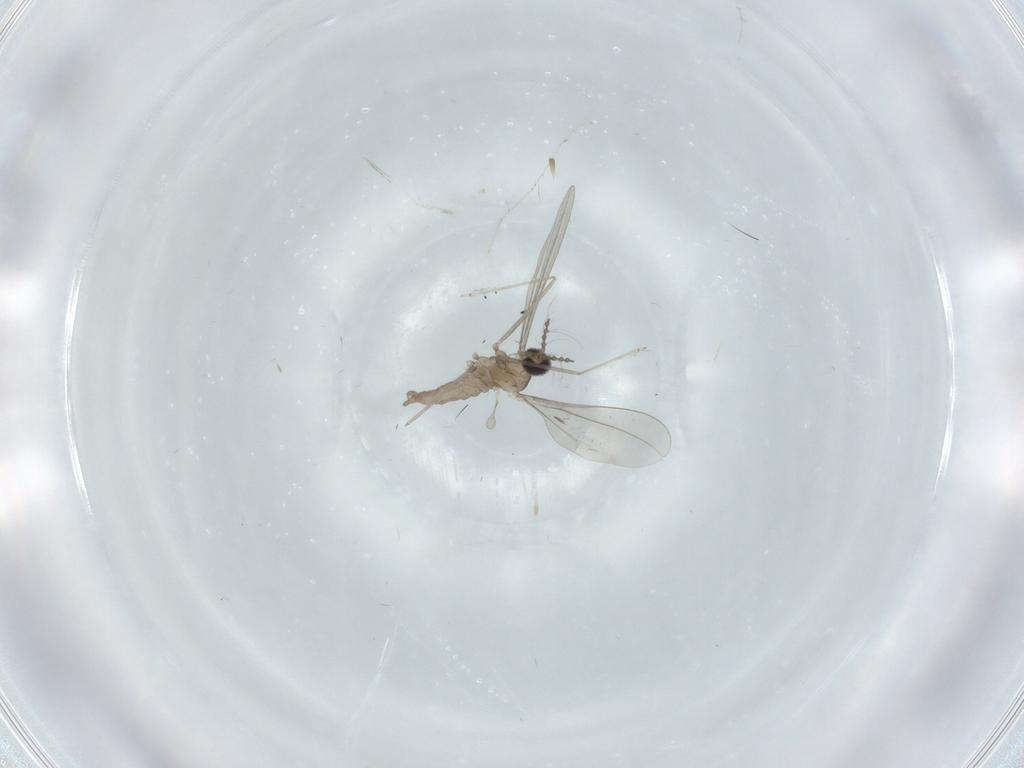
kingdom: Animalia
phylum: Arthropoda
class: Insecta
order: Diptera
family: Cecidomyiidae
